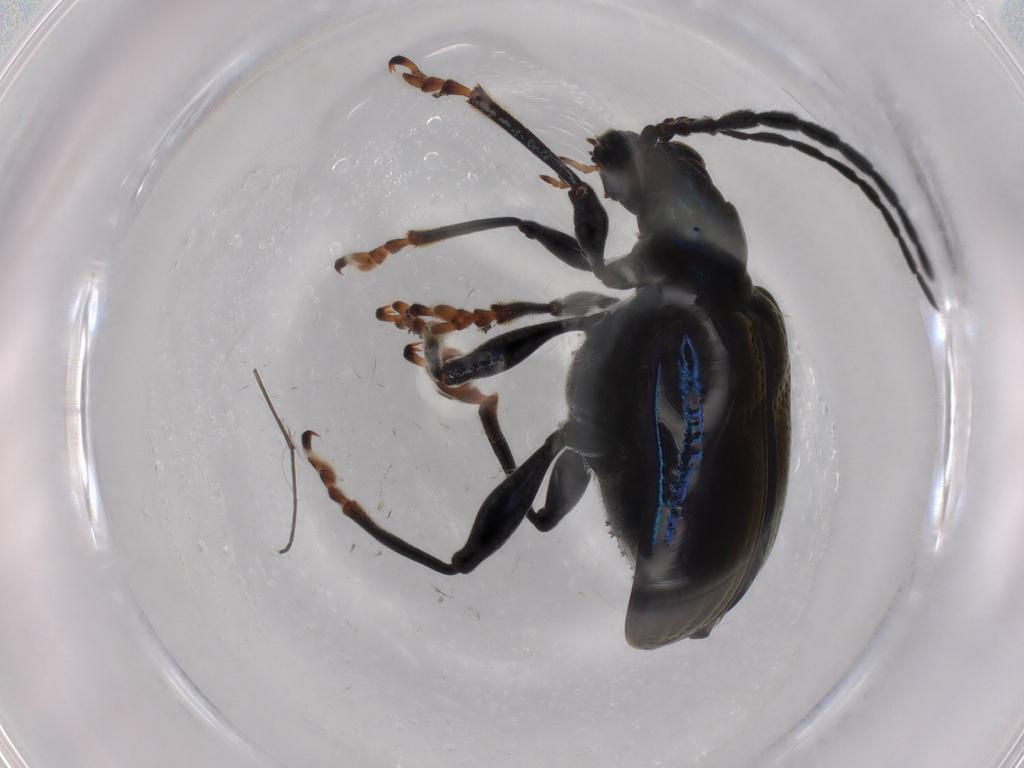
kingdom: Animalia
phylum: Arthropoda
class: Insecta
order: Coleoptera
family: Chrysomelidae
